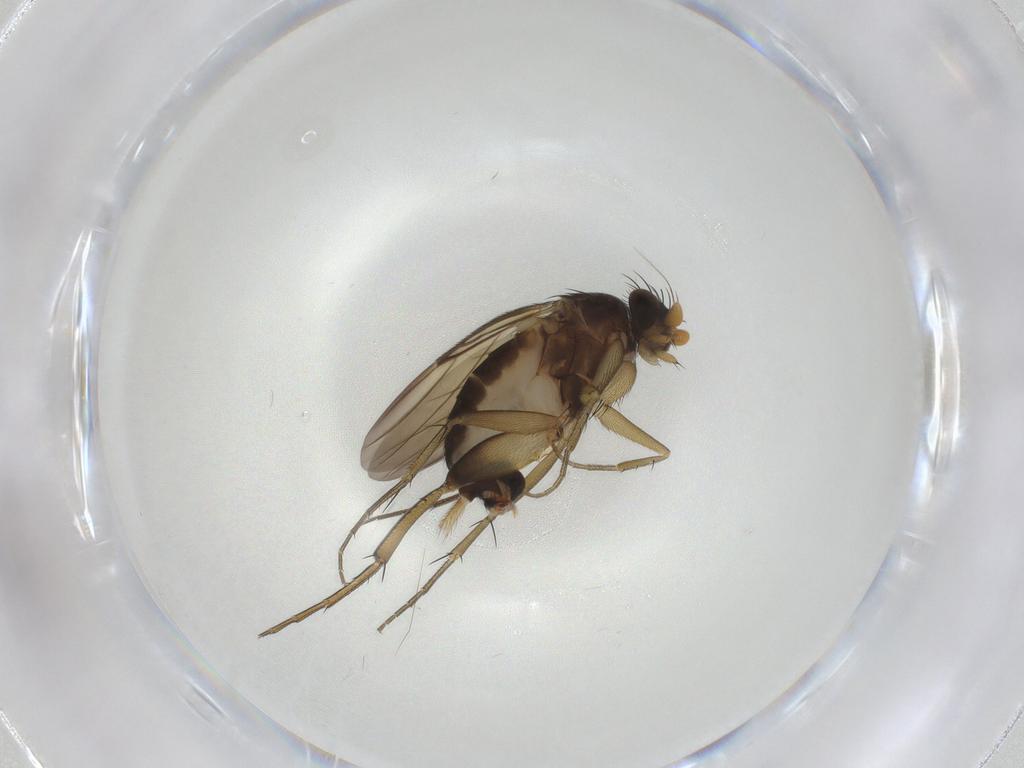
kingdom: Animalia
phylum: Arthropoda
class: Insecta
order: Diptera
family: Phoridae
